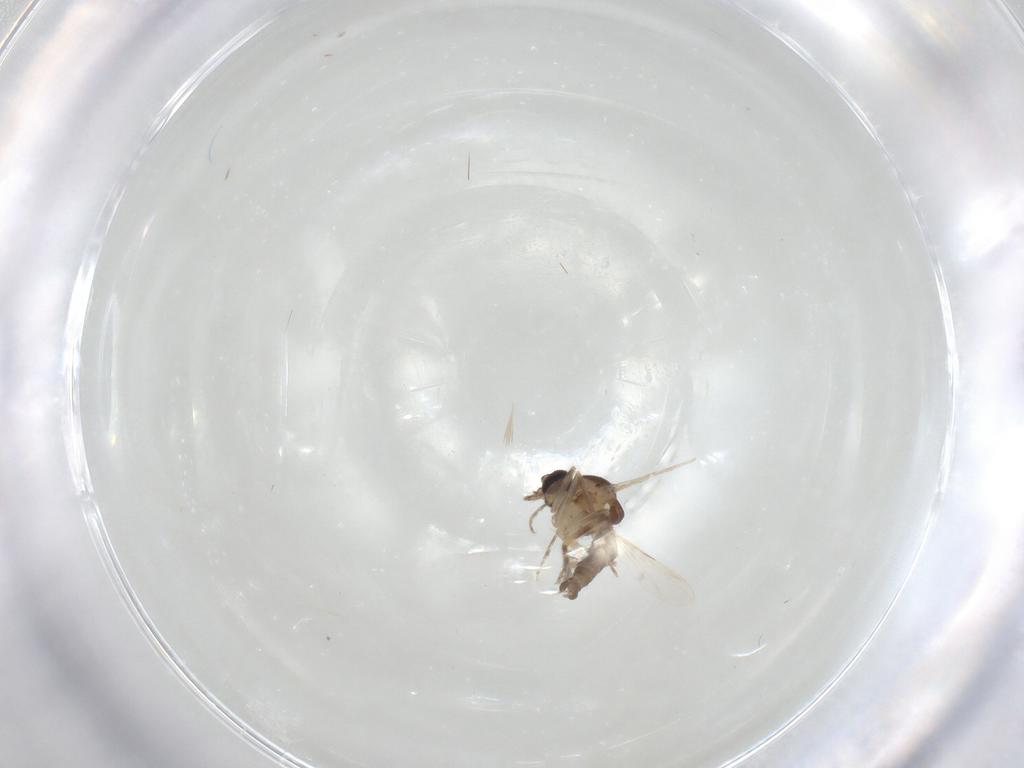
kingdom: Animalia
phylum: Arthropoda
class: Insecta
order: Diptera
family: Ceratopogonidae
